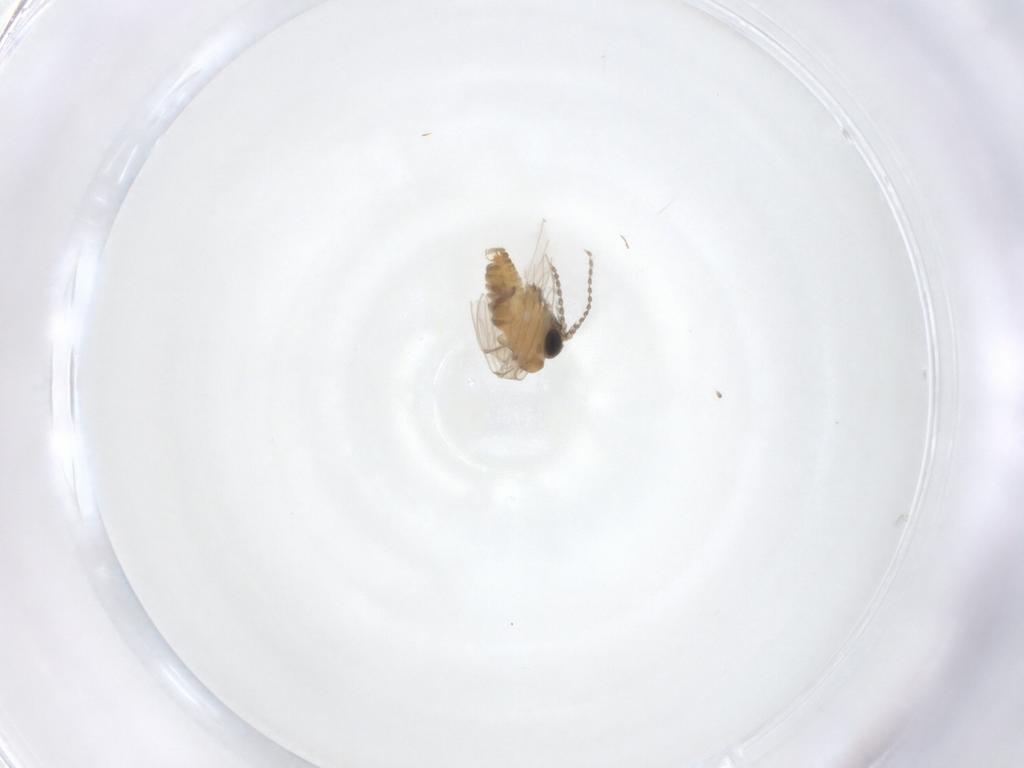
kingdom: Animalia
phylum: Arthropoda
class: Insecta
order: Diptera
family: Psychodidae
